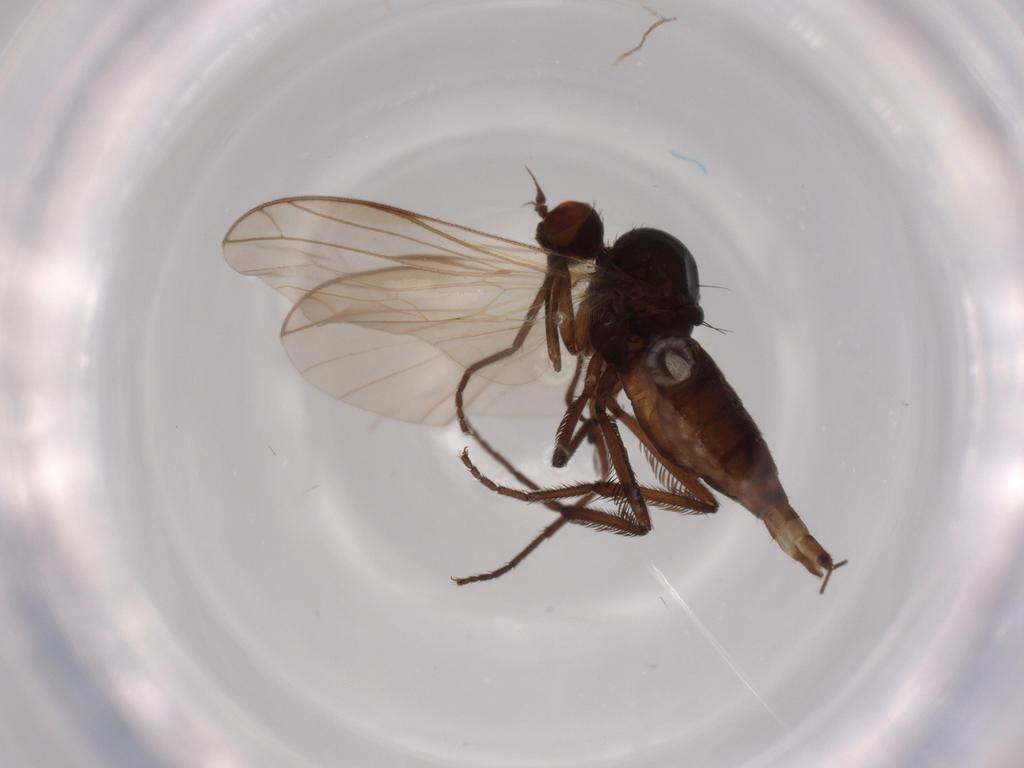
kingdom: Animalia
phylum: Arthropoda
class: Insecta
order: Diptera
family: Empididae
